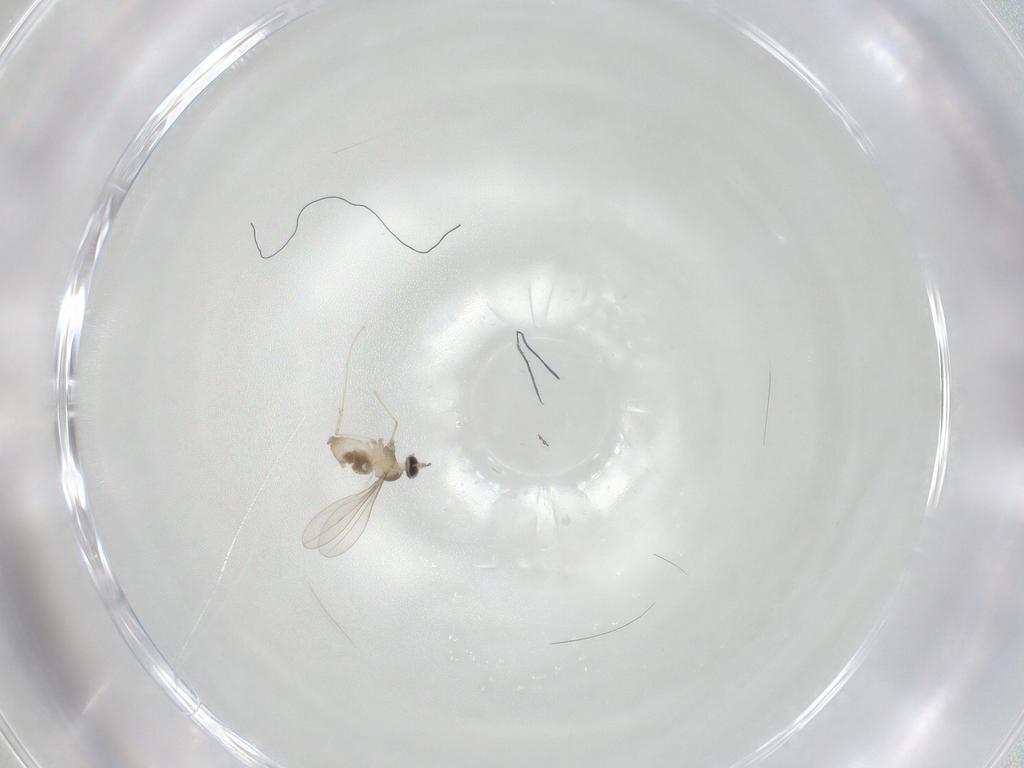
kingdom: Animalia
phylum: Arthropoda
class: Insecta
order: Diptera
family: Cecidomyiidae
